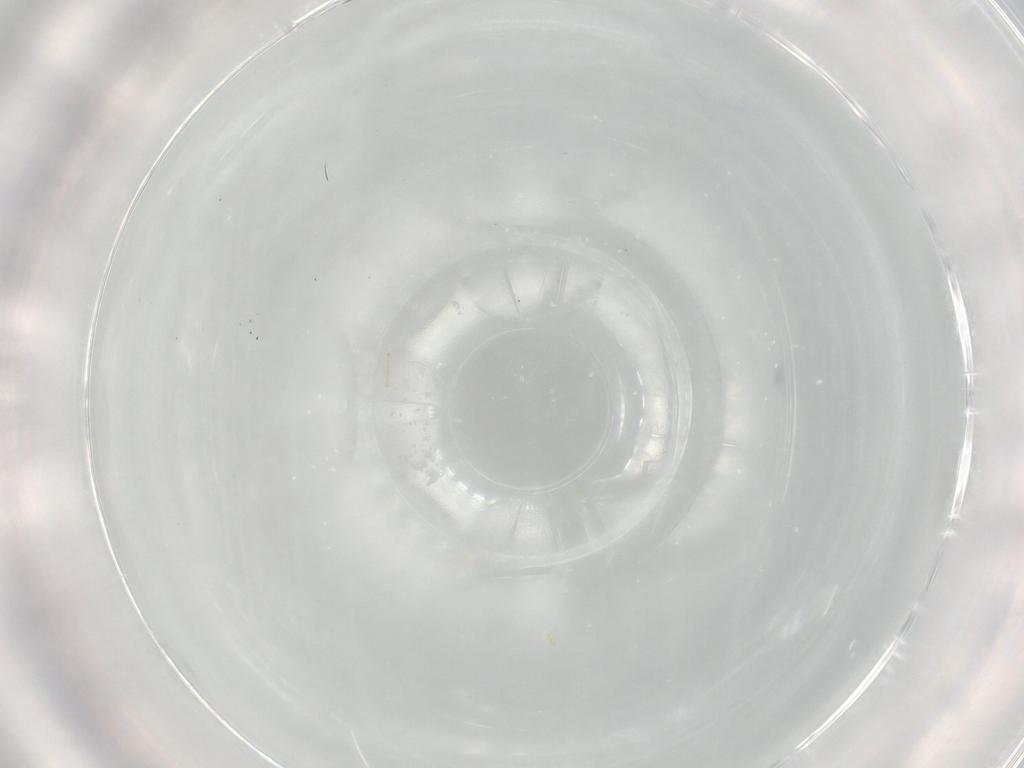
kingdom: Animalia
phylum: Arthropoda
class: Insecta
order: Hemiptera
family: Aleyrodidae
